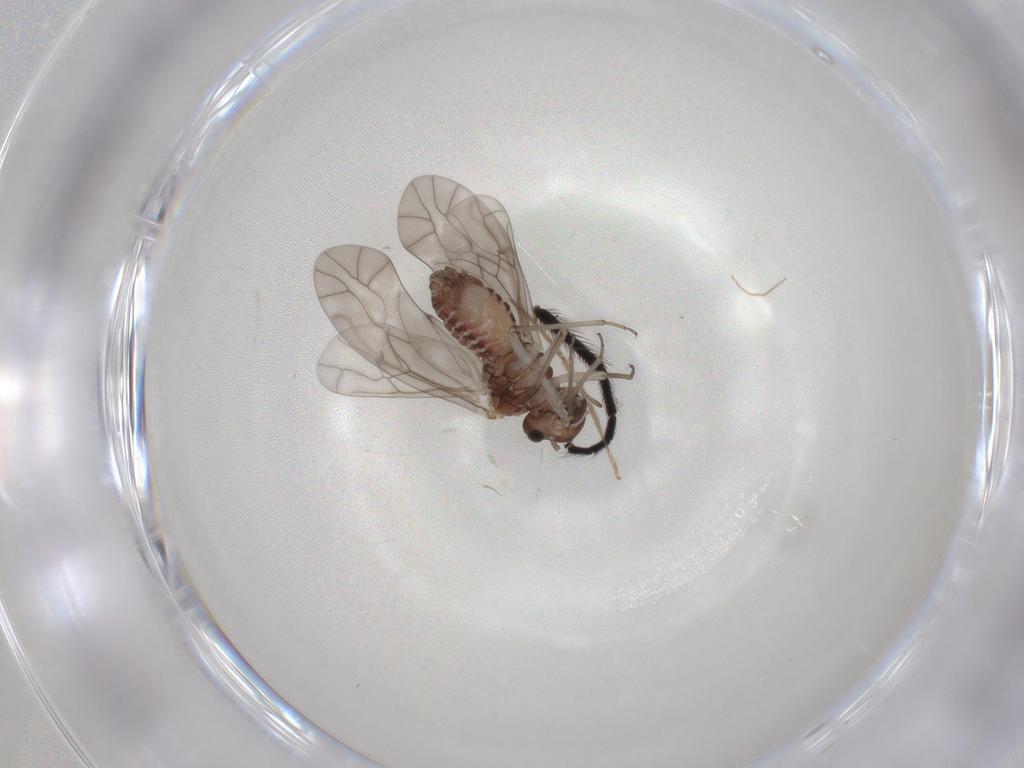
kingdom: Animalia
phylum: Arthropoda
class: Insecta
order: Psocodea
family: Peripsocidae
